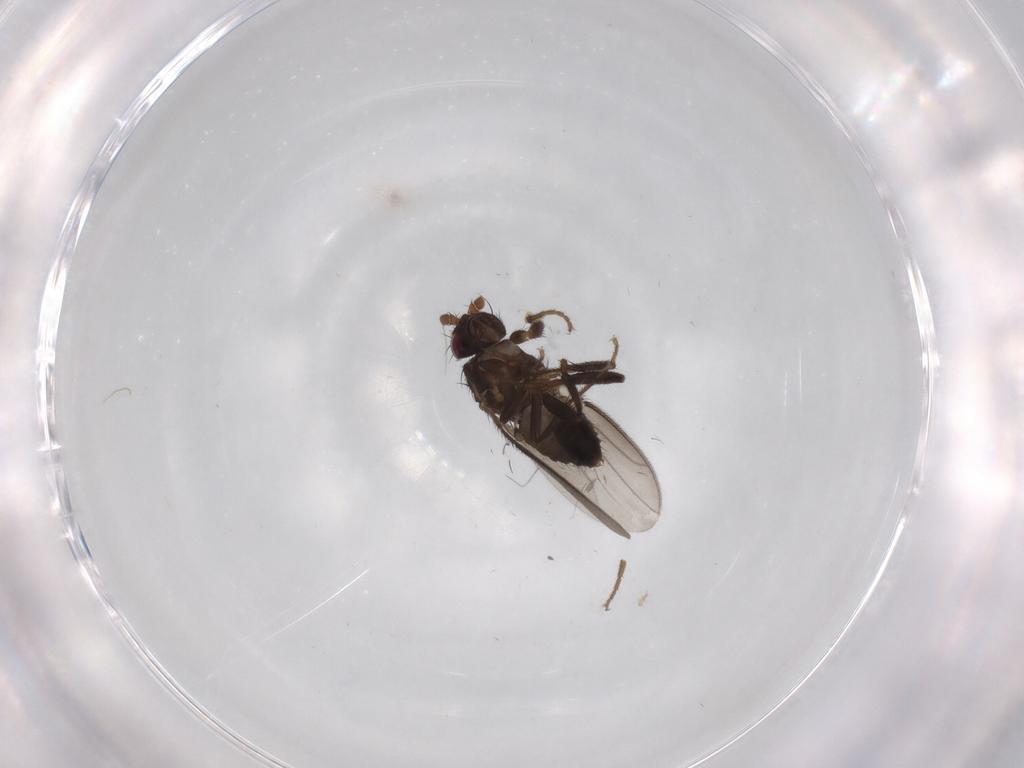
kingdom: Animalia
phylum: Arthropoda
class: Insecta
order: Diptera
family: Sphaeroceridae
